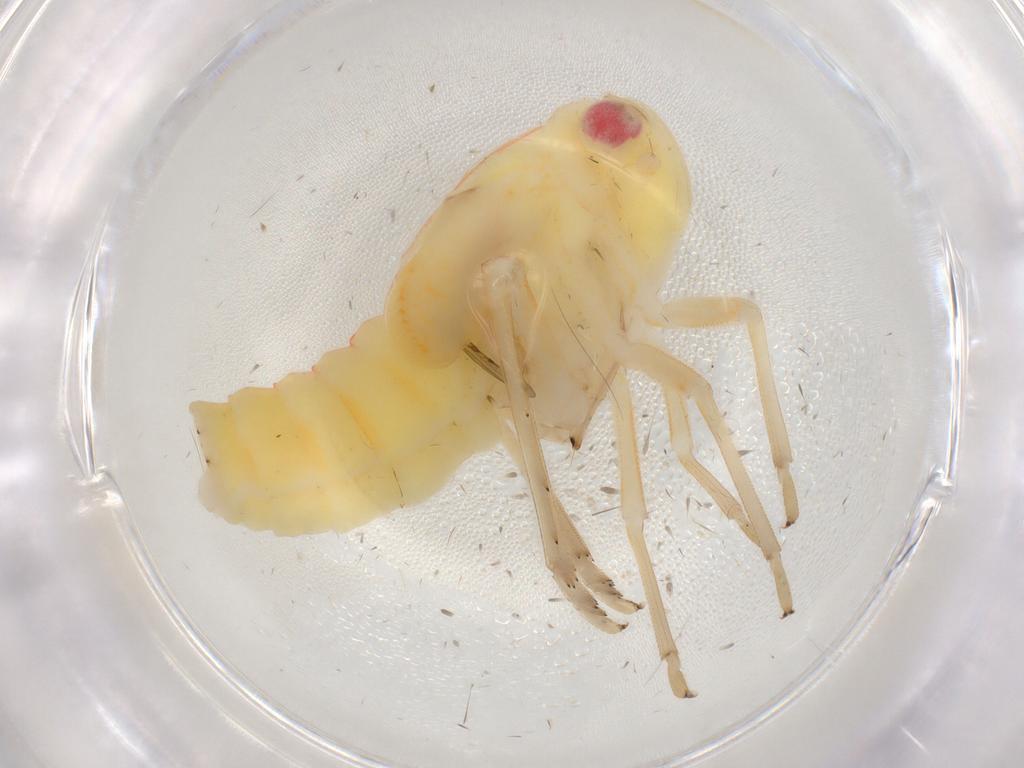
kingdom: Animalia
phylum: Arthropoda
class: Insecta
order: Hemiptera
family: Tropiduchidae
